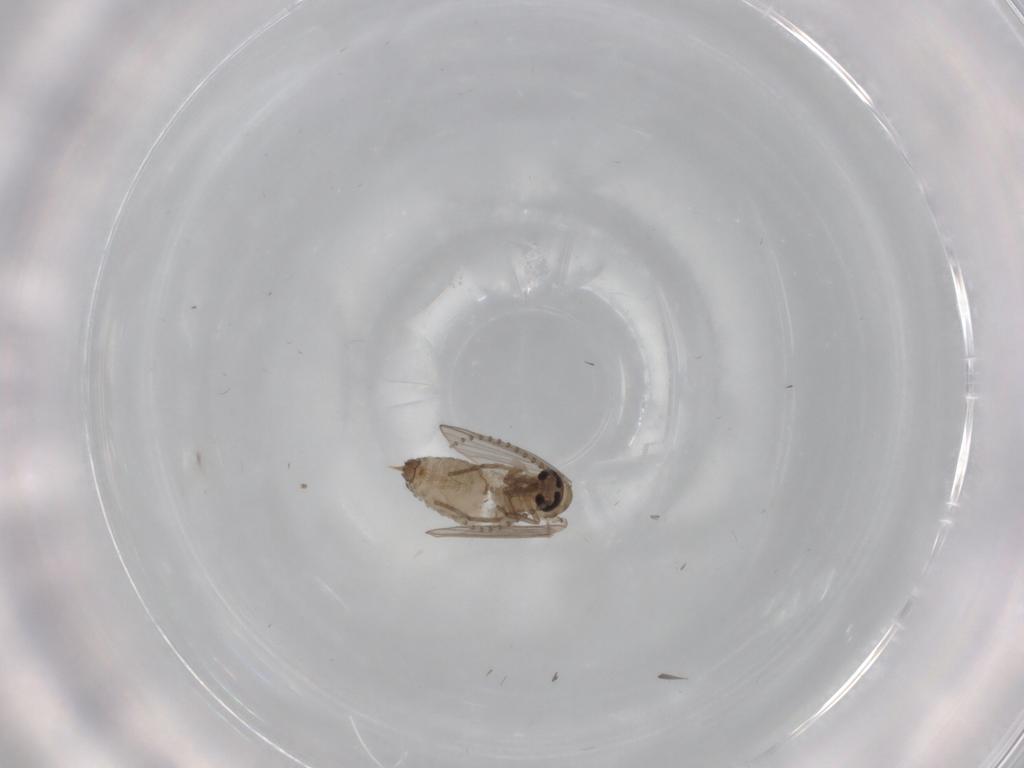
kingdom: Animalia
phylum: Arthropoda
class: Insecta
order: Diptera
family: Psychodidae
